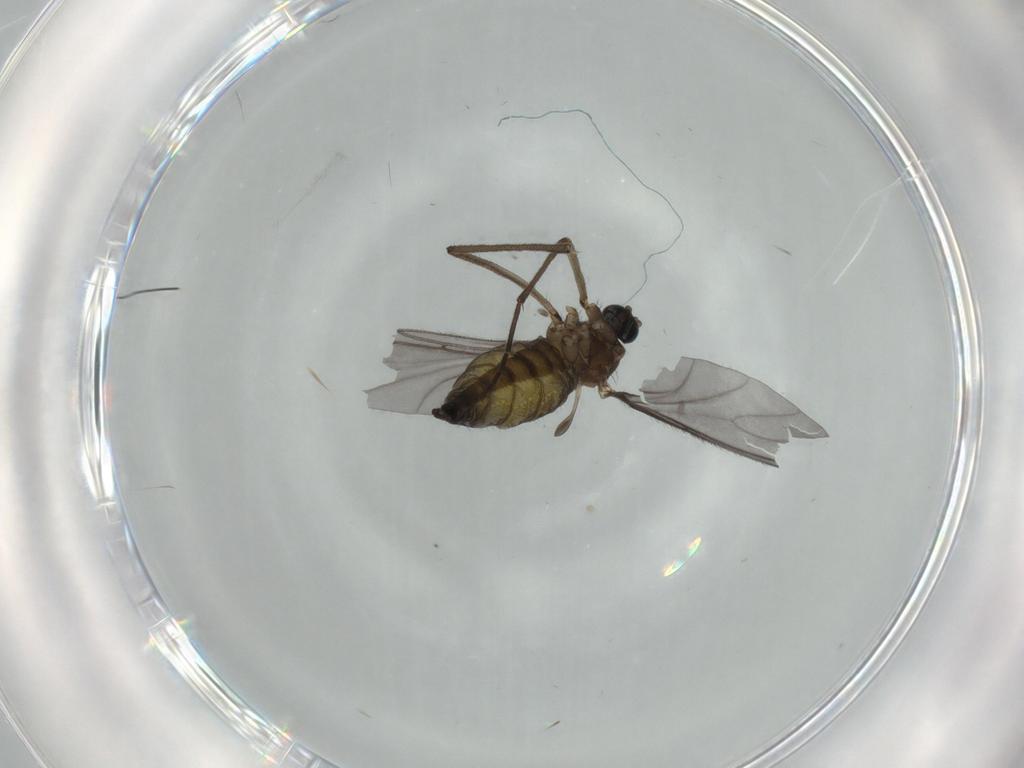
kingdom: Animalia
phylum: Arthropoda
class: Insecta
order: Diptera
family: Sciaridae
